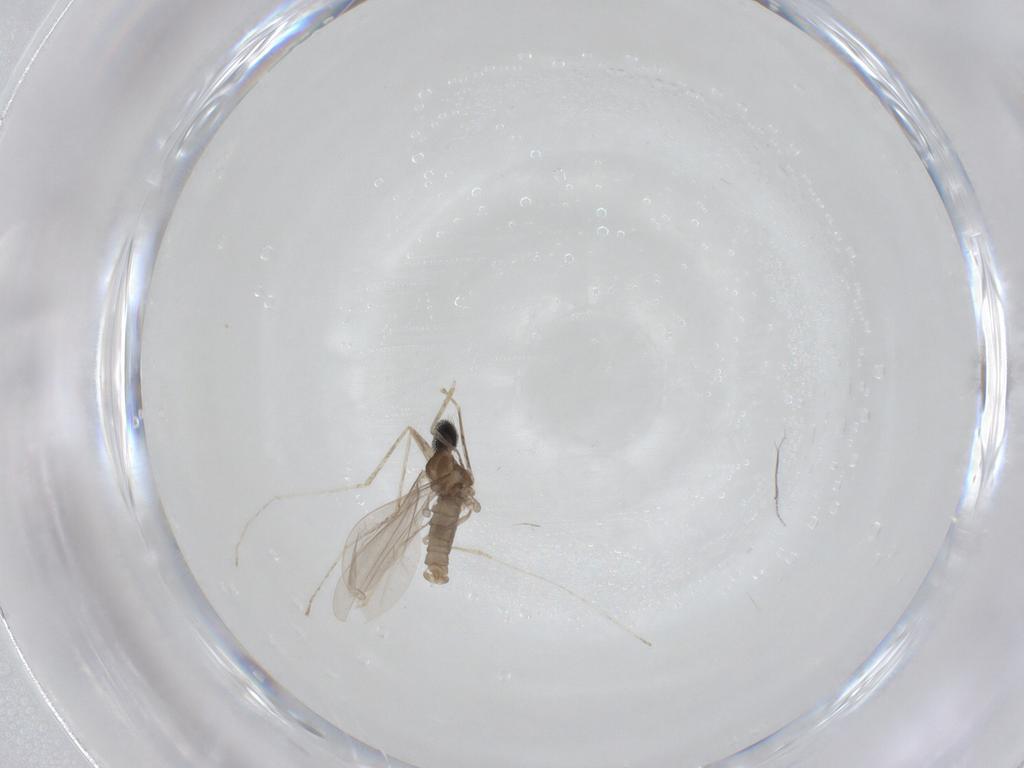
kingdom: Animalia
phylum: Arthropoda
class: Insecta
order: Diptera
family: Cecidomyiidae
